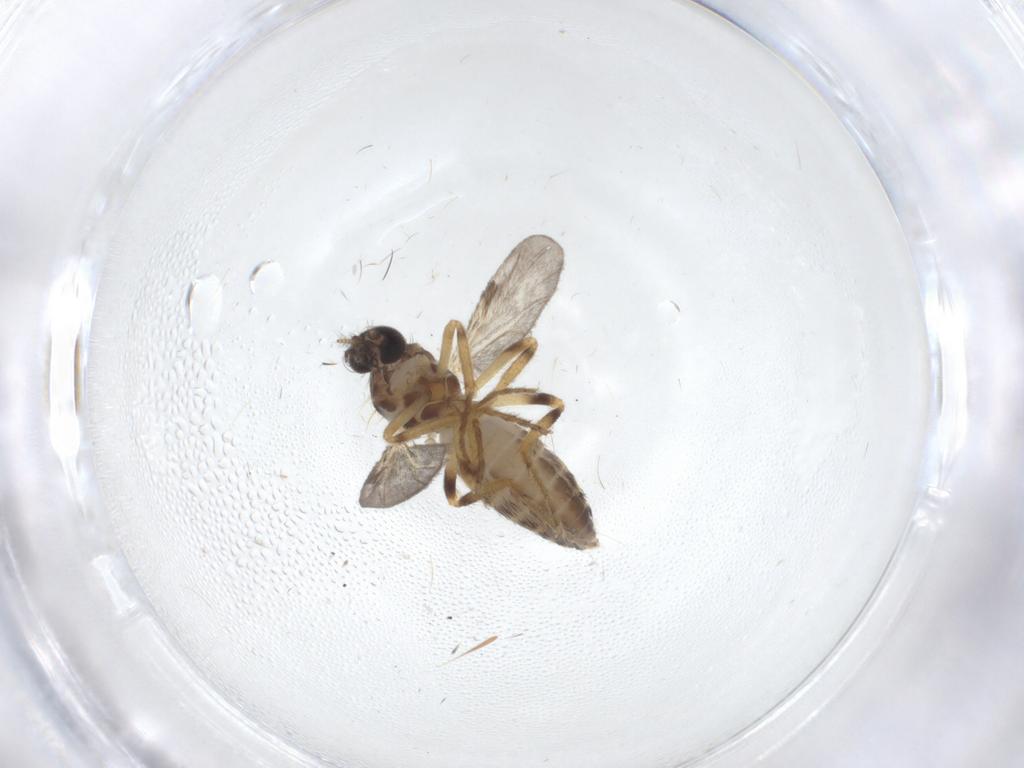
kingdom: Animalia
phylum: Arthropoda
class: Insecta
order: Diptera
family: Ceratopogonidae
